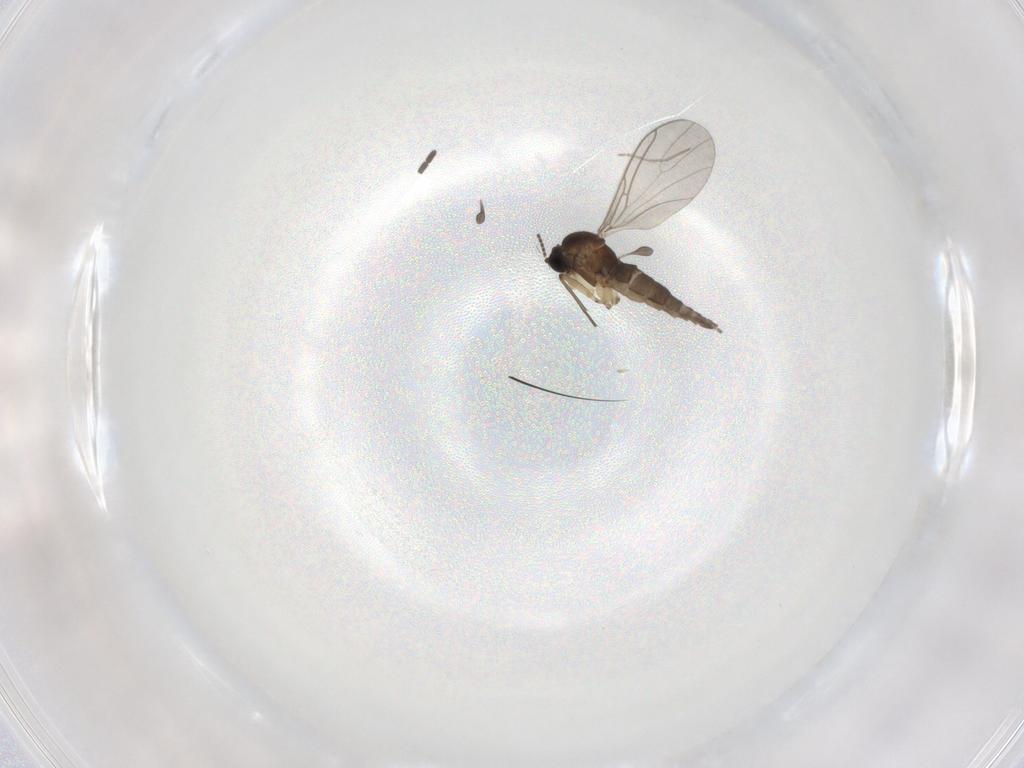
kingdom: Animalia
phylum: Arthropoda
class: Insecta
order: Diptera
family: Sciaridae
